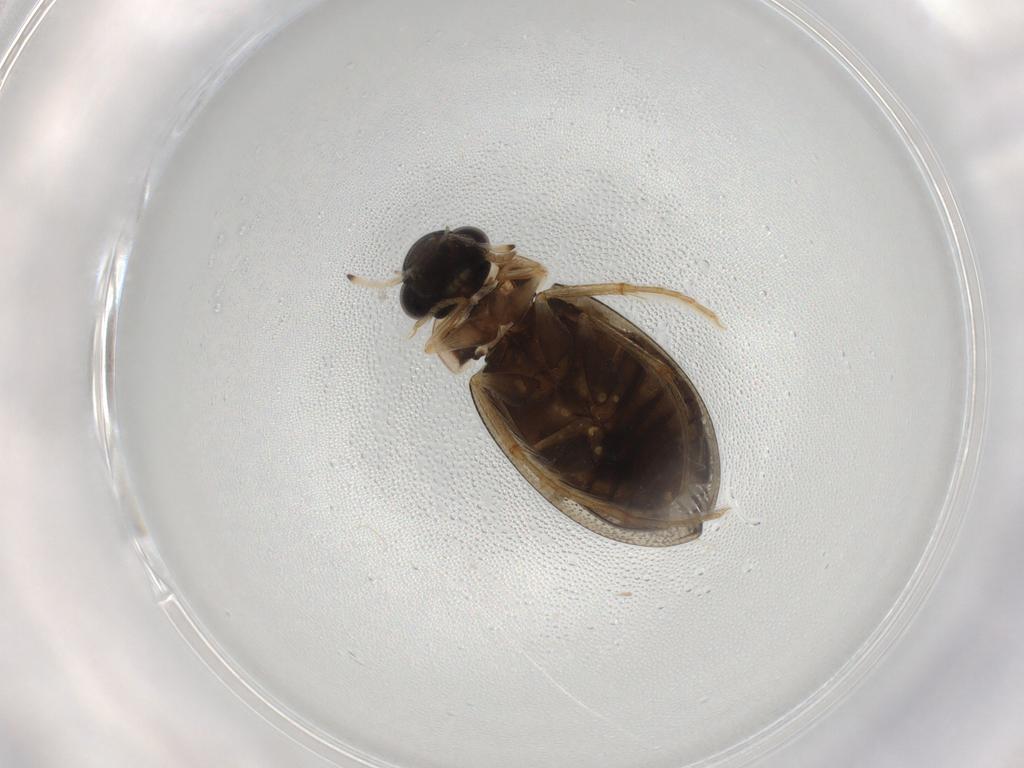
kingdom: Animalia
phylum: Arthropoda
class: Insecta
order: Coleoptera
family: Hydrophilidae
